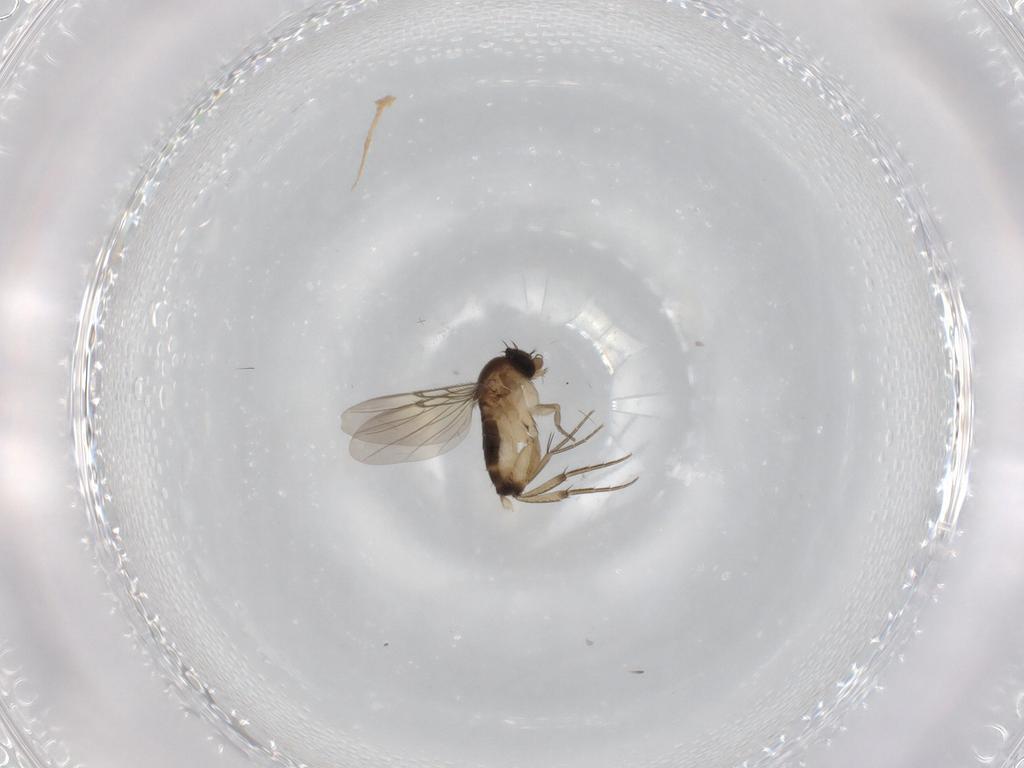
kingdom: Animalia
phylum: Arthropoda
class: Insecta
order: Diptera
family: Phoridae
